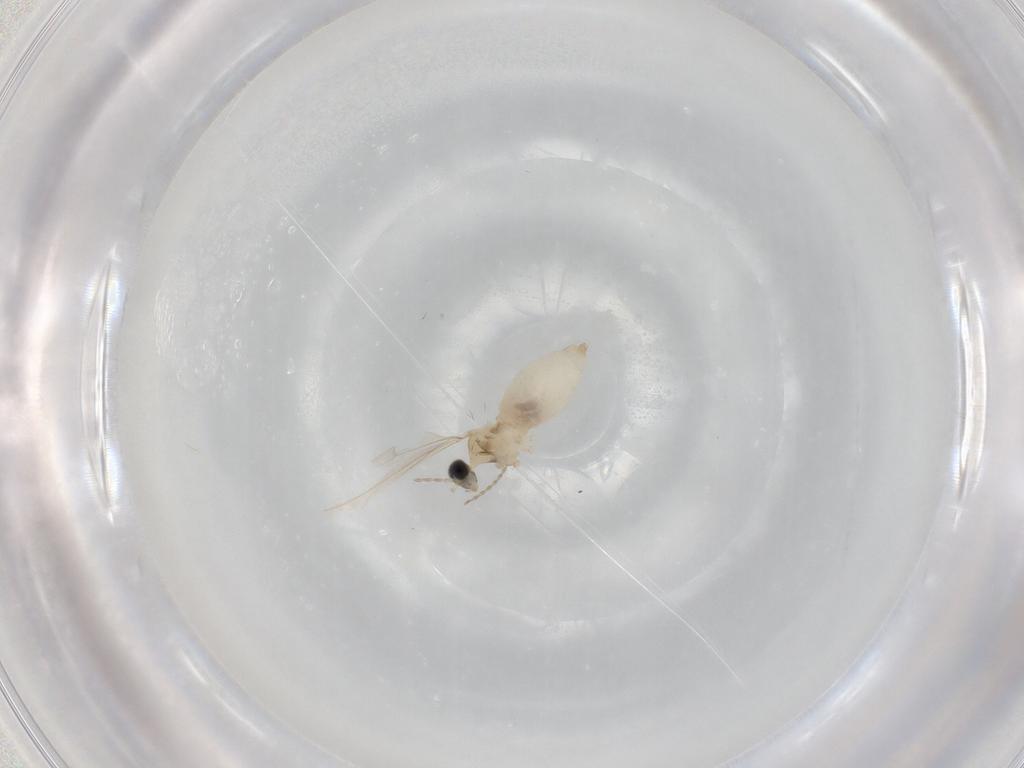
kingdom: Animalia
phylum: Arthropoda
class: Insecta
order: Diptera
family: Cecidomyiidae
